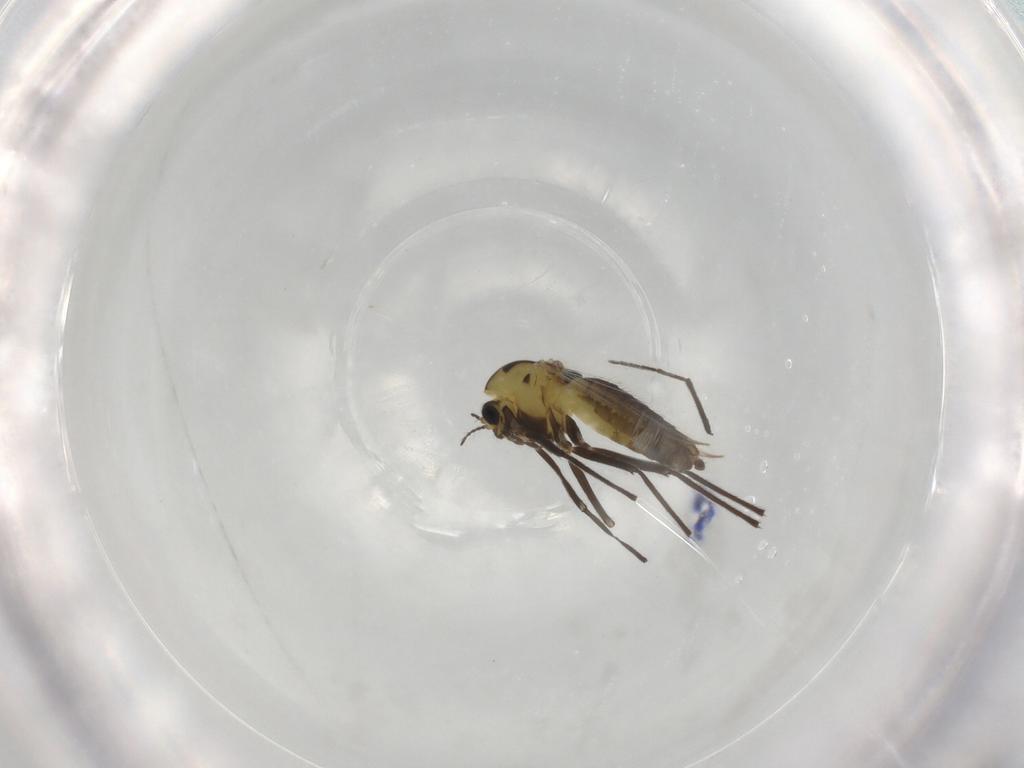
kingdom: Animalia
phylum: Arthropoda
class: Insecta
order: Diptera
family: Chironomidae
